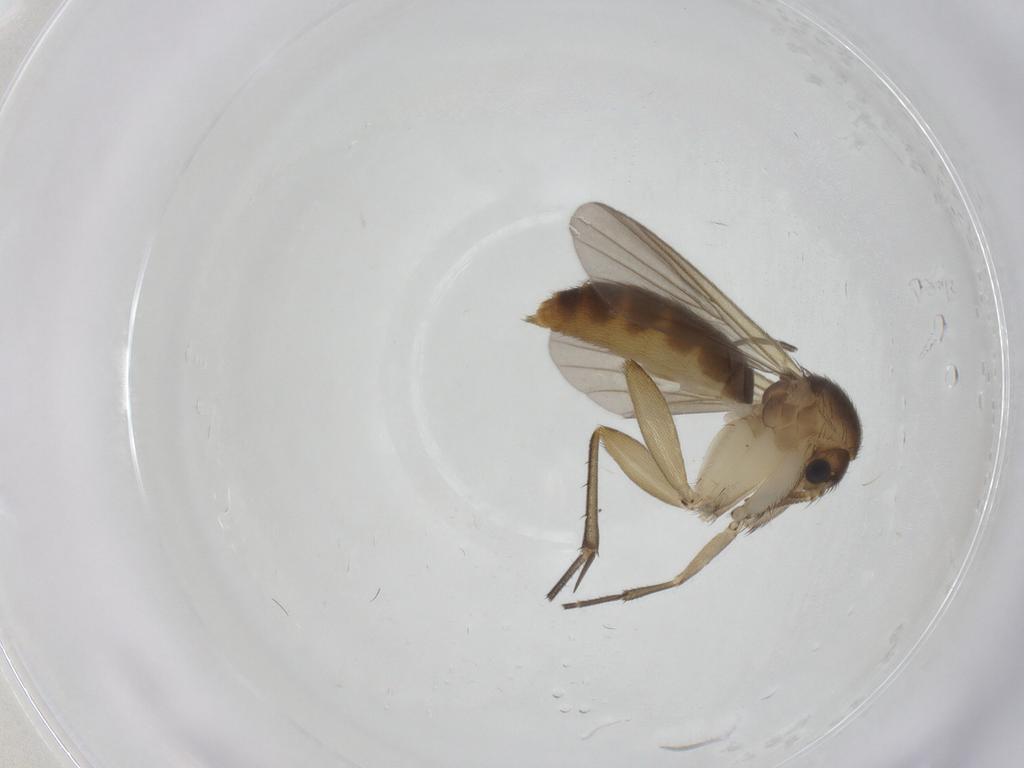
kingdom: Animalia
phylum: Arthropoda
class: Insecta
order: Diptera
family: Mycetophilidae
